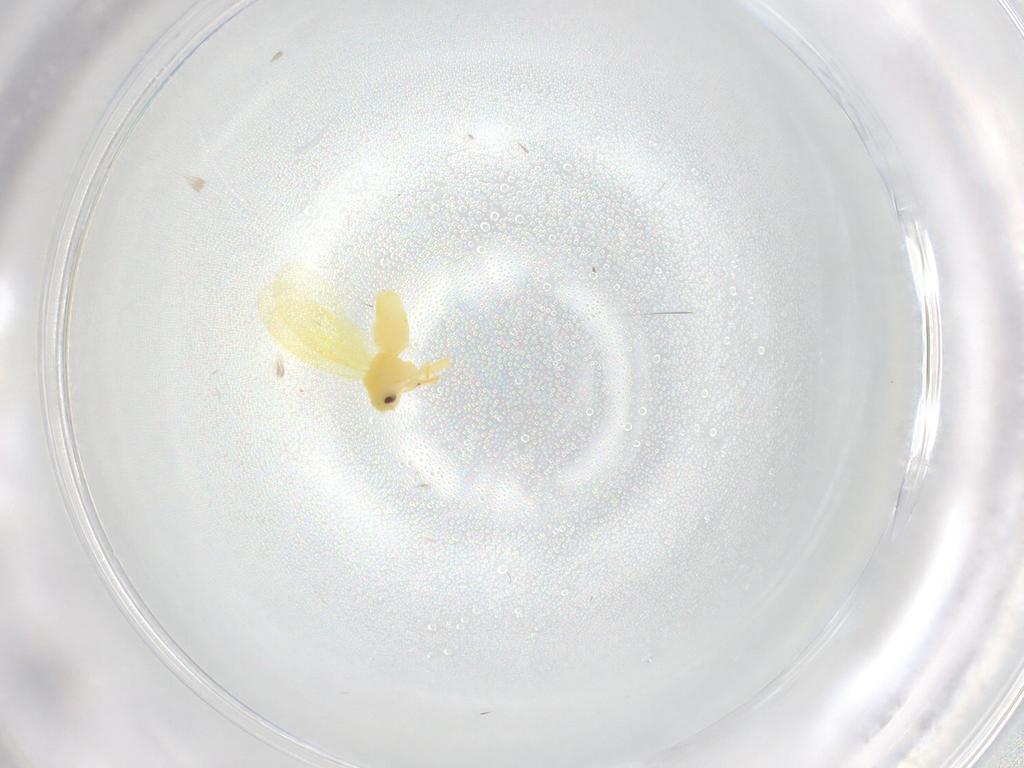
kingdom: Animalia
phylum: Arthropoda
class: Insecta
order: Hemiptera
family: Aleyrodidae
